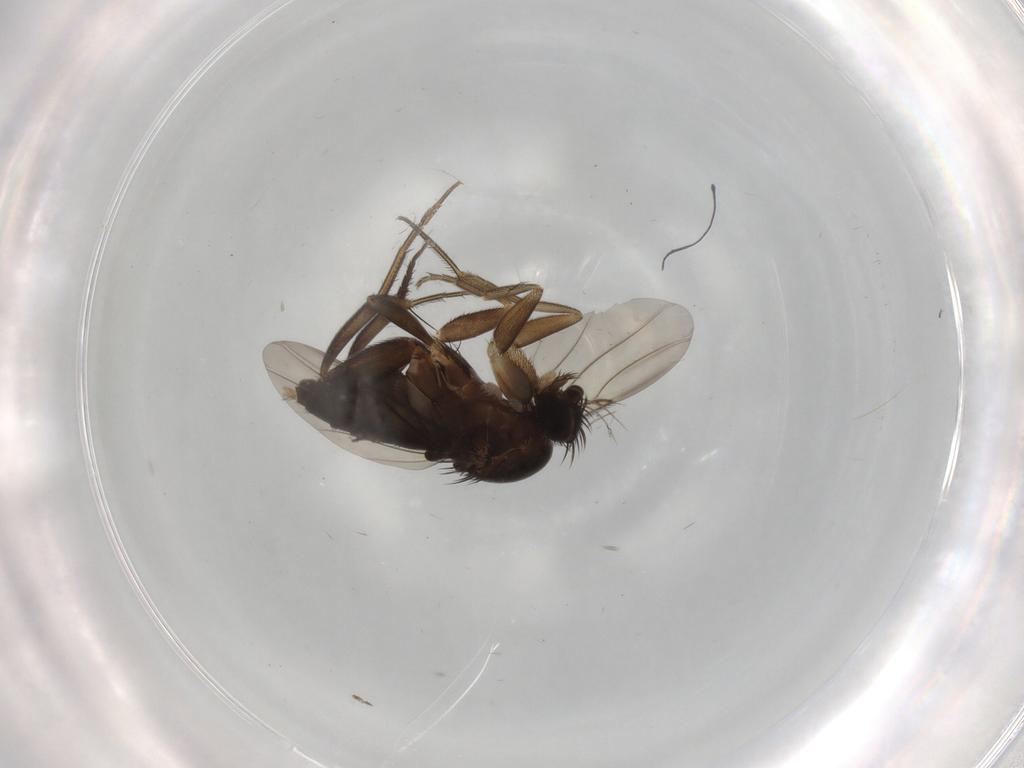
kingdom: Animalia
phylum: Arthropoda
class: Insecta
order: Diptera
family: Phoridae
